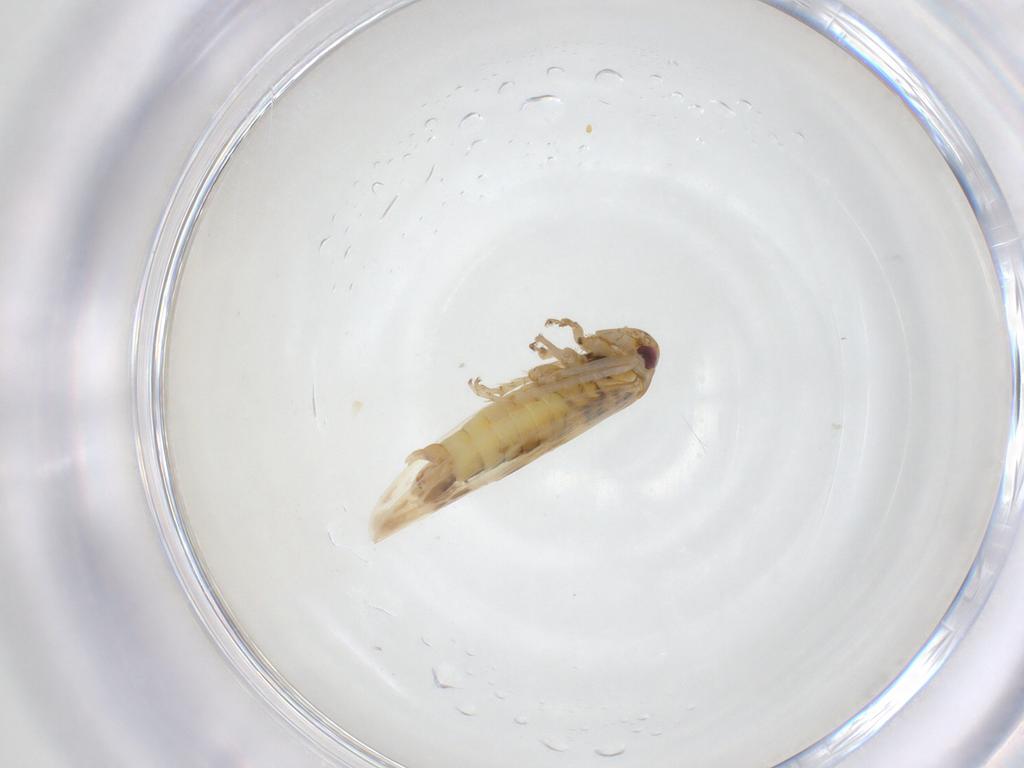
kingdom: Animalia
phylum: Arthropoda
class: Insecta
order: Hemiptera
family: Cicadellidae
